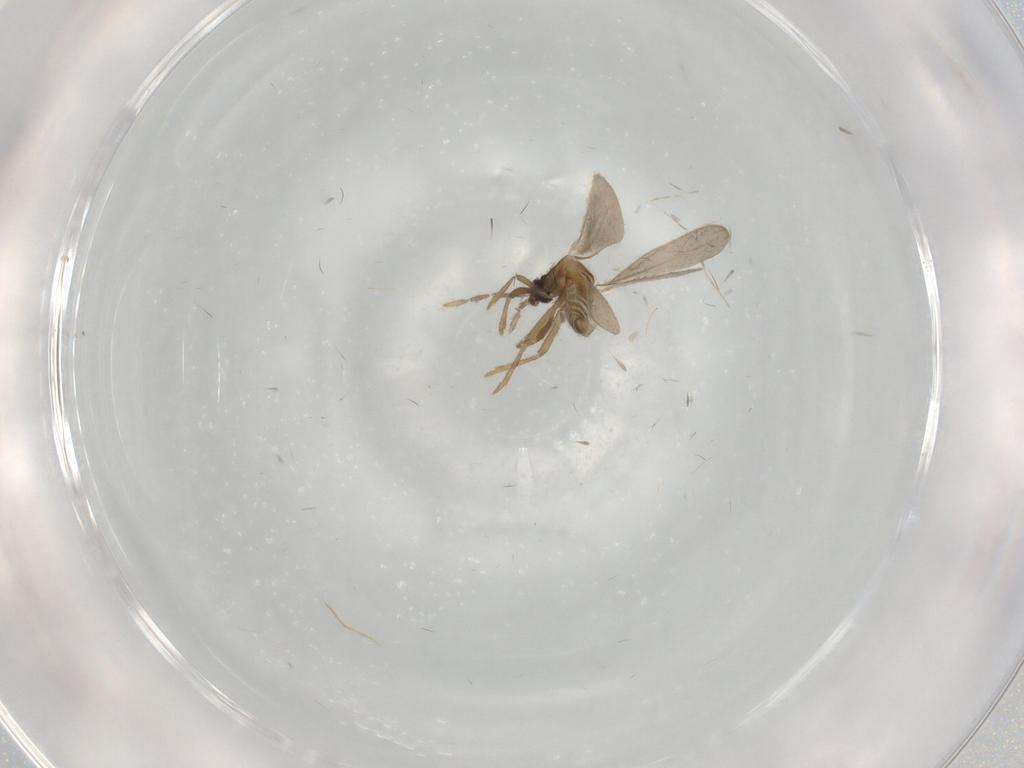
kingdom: Animalia
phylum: Arthropoda
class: Insecta
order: Diptera
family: Cecidomyiidae
